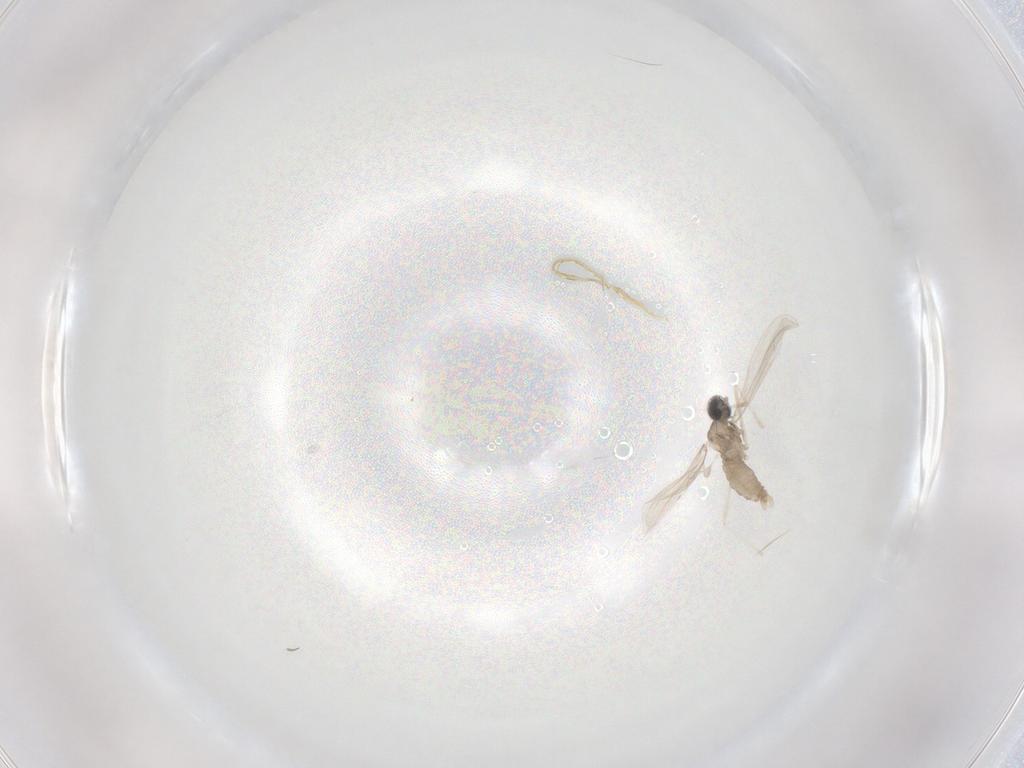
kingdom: Animalia
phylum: Arthropoda
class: Insecta
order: Diptera
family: Cecidomyiidae
